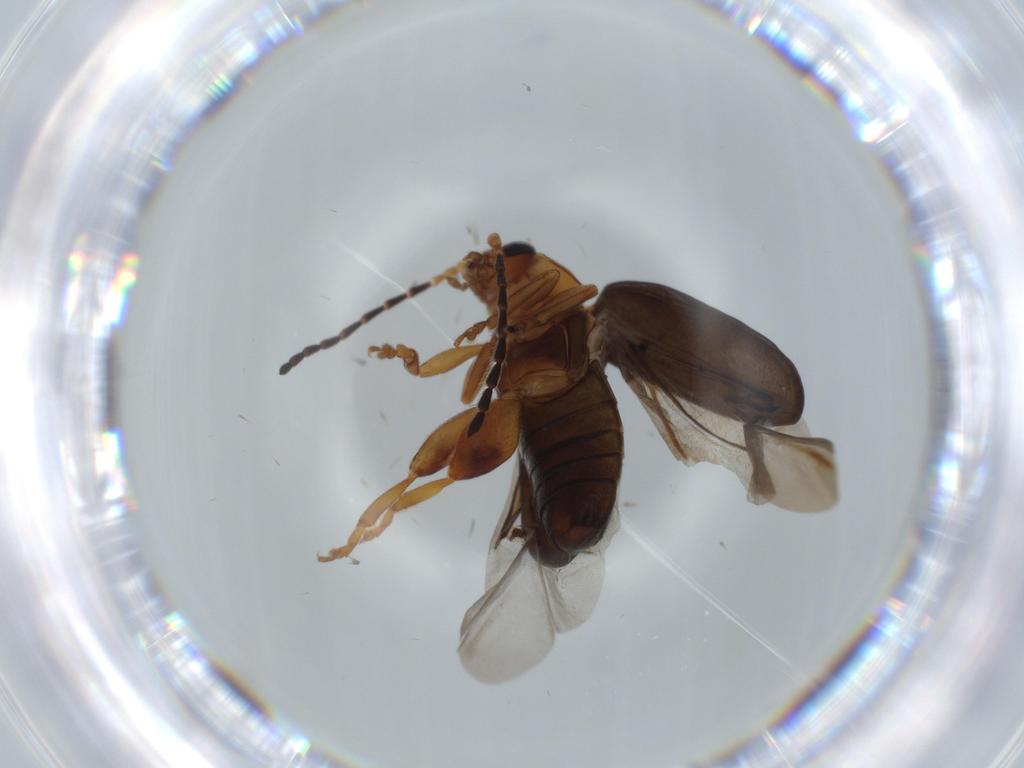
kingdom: Animalia
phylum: Arthropoda
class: Insecta
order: Coleoptera
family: Staphylinidae
